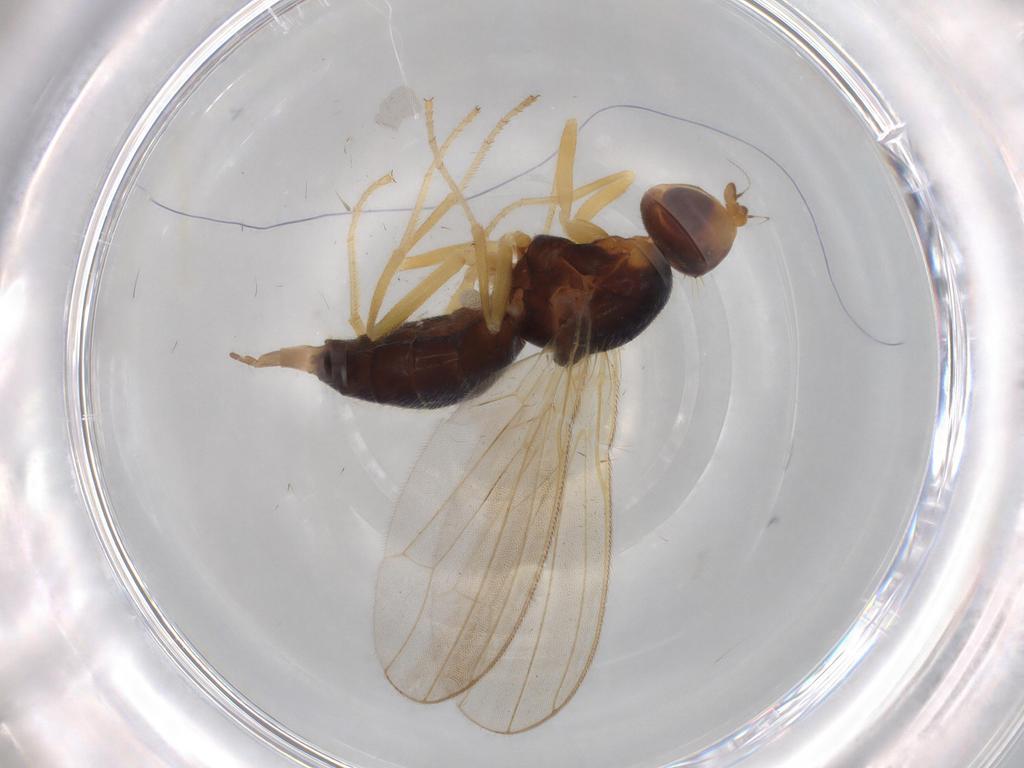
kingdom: Animalia
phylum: Arthropoda
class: Insecta
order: Diptera
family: Sphaeroceridae
